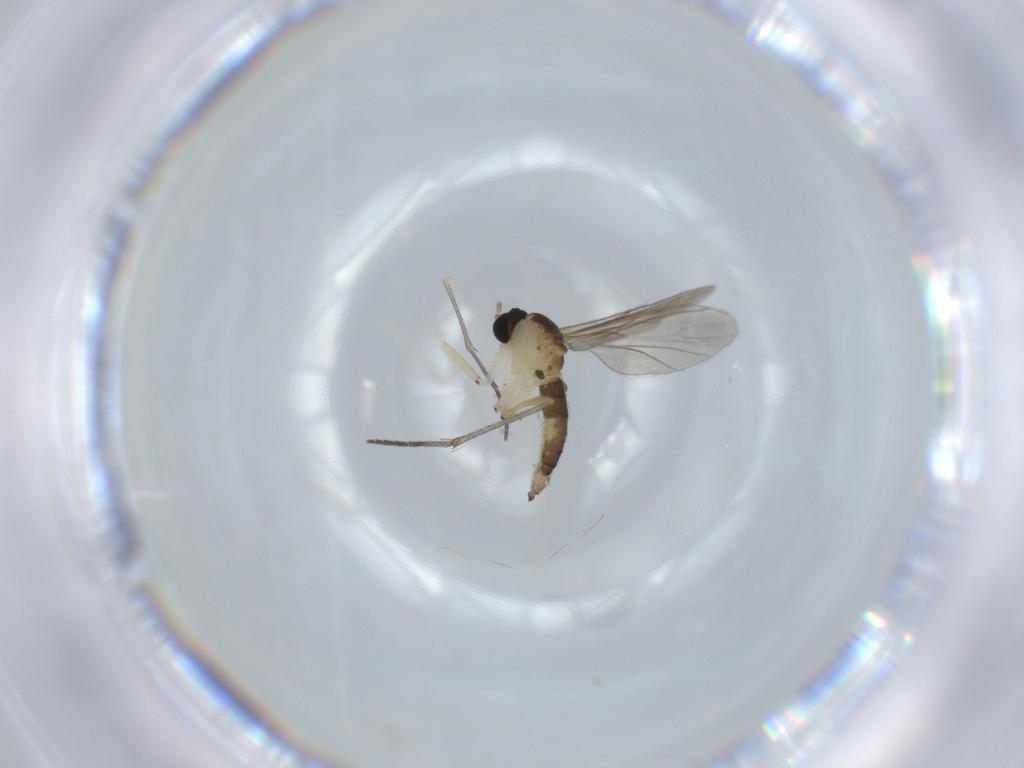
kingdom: Animalia
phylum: Arthropoda
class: Insecta
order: Diptera
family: Sciaridae
